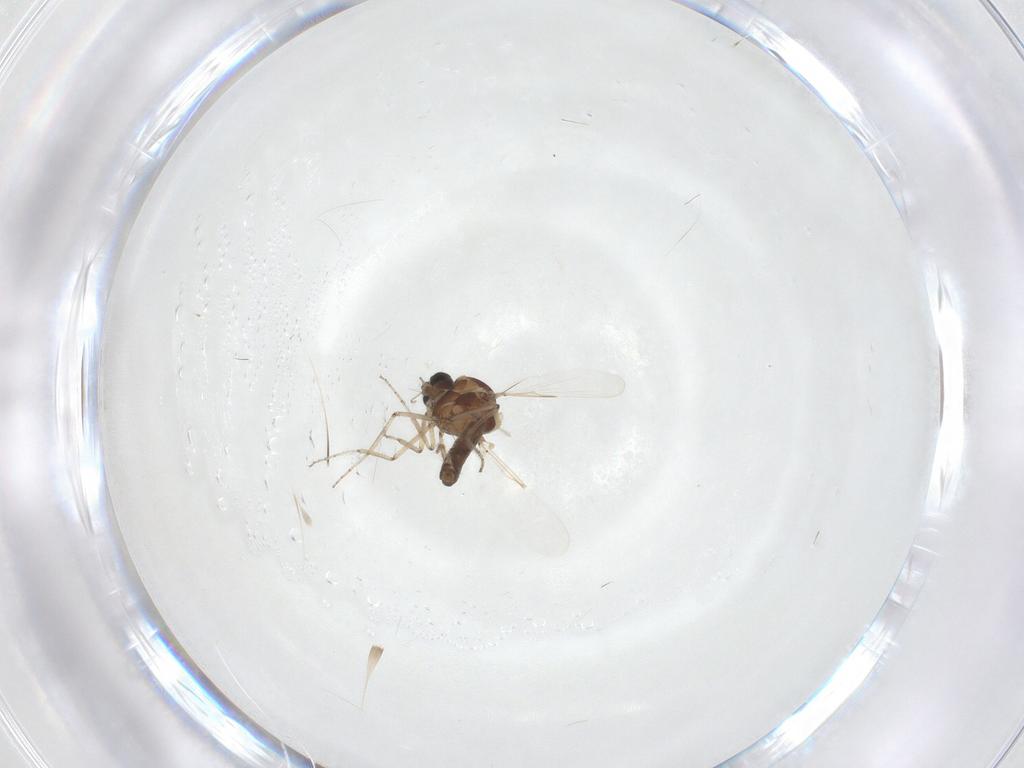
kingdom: Animalia
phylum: Arthropoda
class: Insecta
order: Diptera
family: Ceratopogonidae
